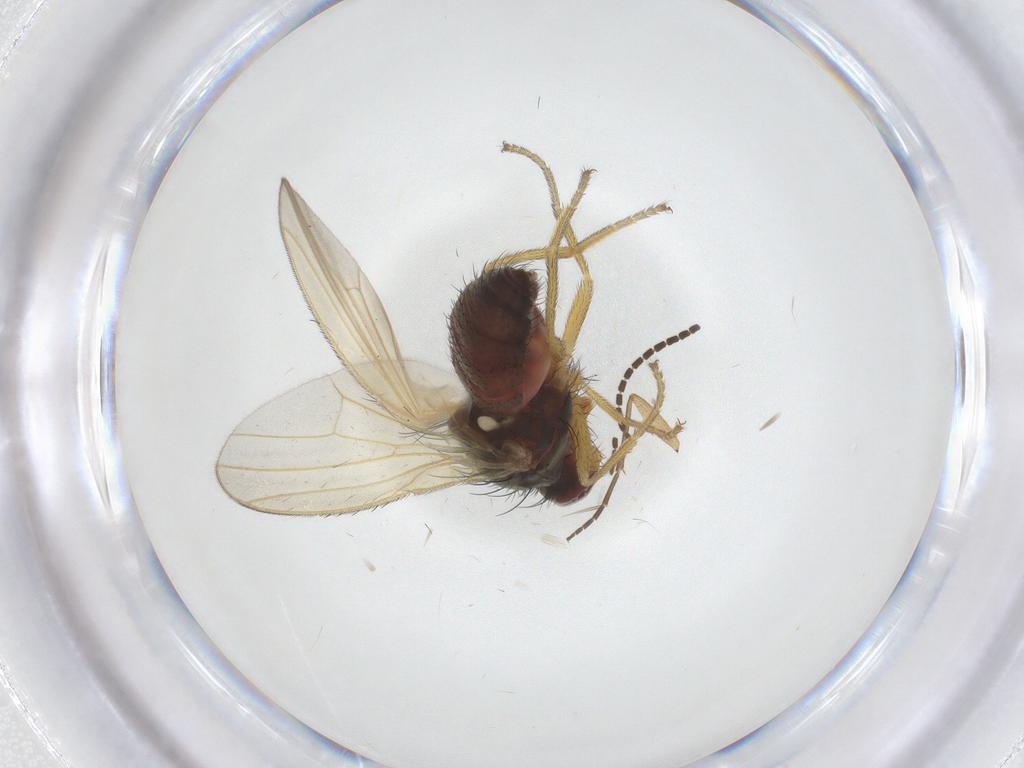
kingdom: Animalia
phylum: Arthropoda
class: Insecta
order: Diptera
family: Heleomyzidae
